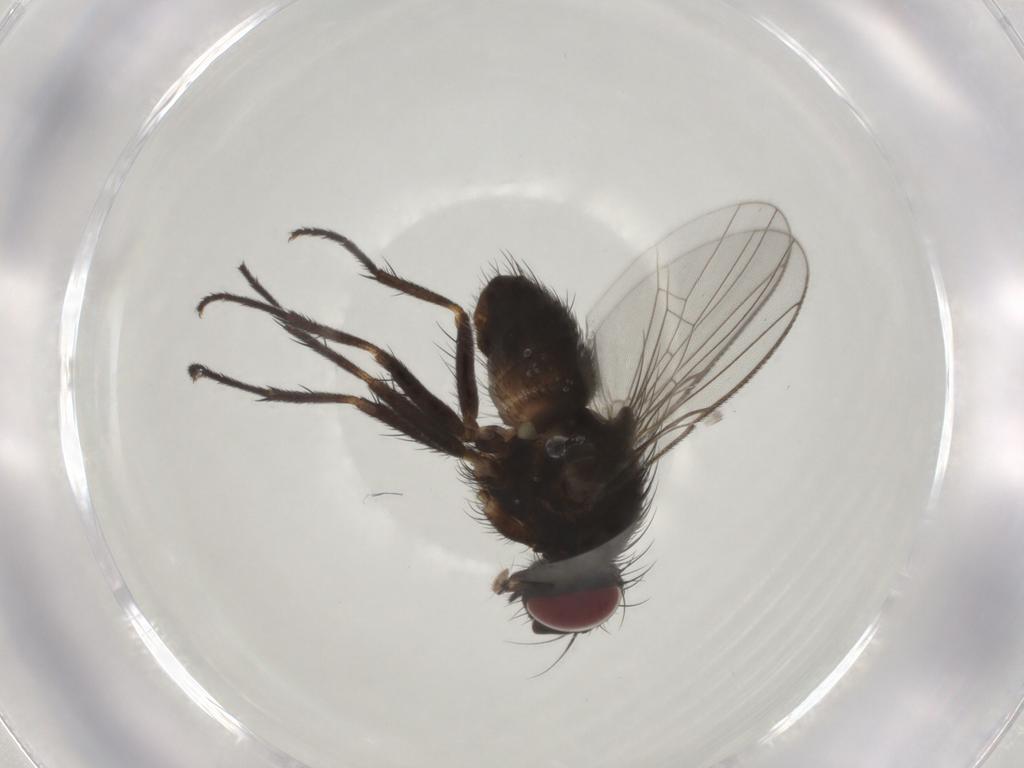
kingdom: Animalia
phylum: Arthropoda
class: Insecta
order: Diptera
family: Muscidae
